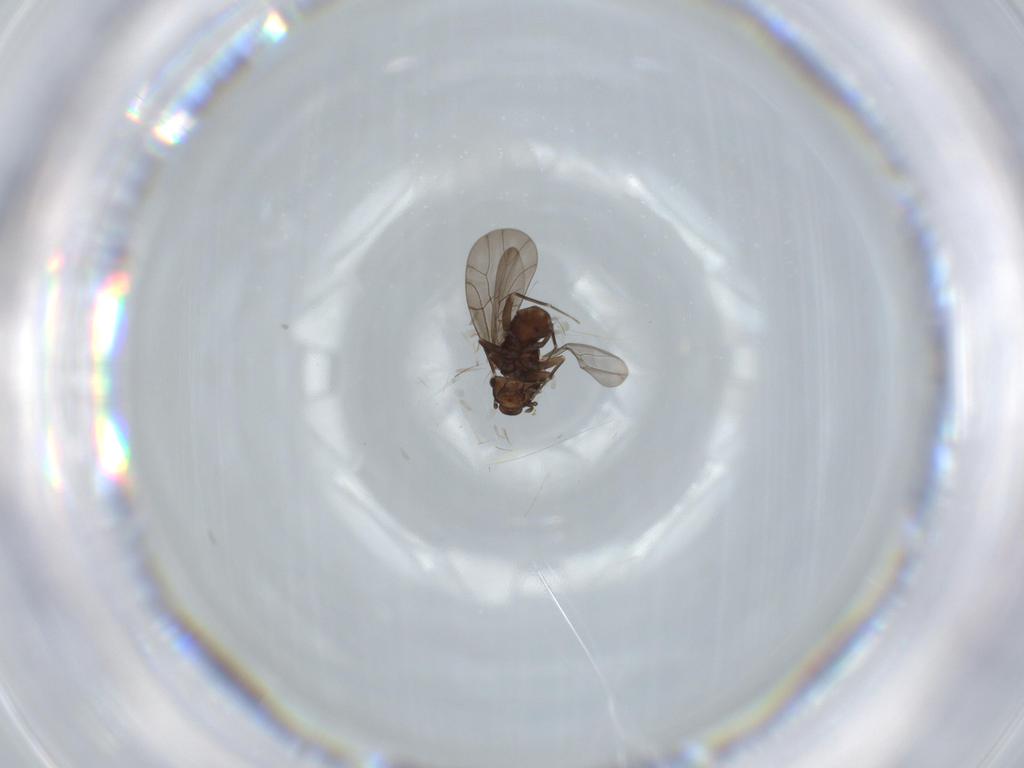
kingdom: Animalia
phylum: Arthropoda
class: Insecta
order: Psocodea
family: Lepidopsocidae
